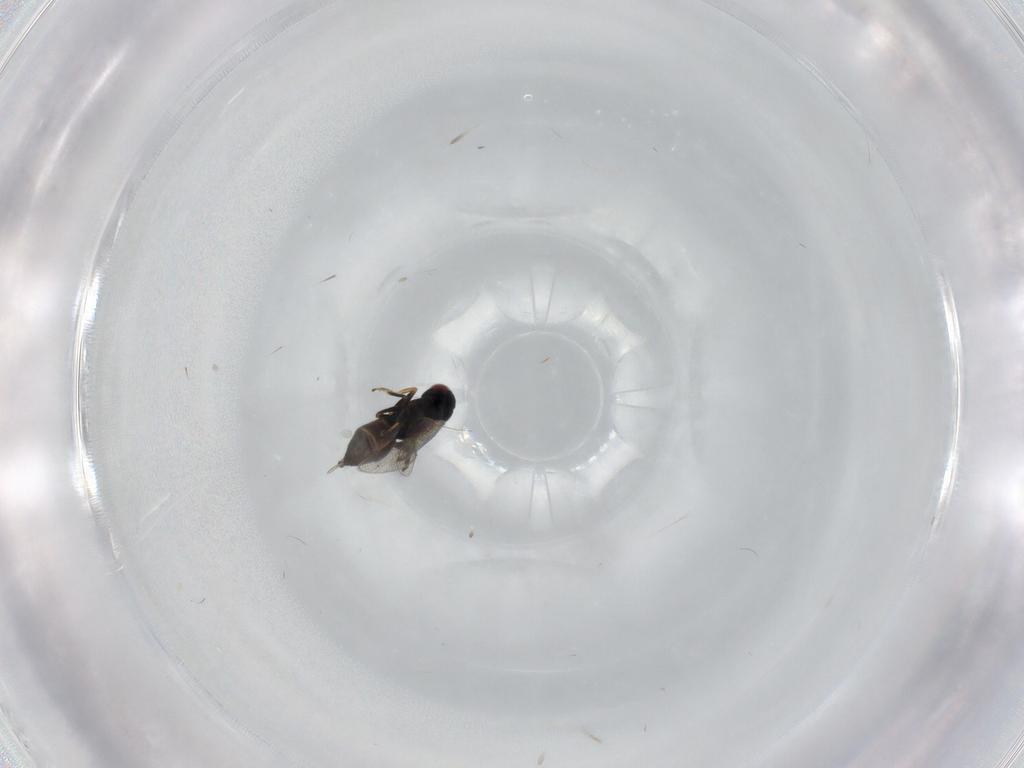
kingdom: Animalia
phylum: Arthropoda
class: Insecta
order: Hymenoptera
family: Eulophidae
